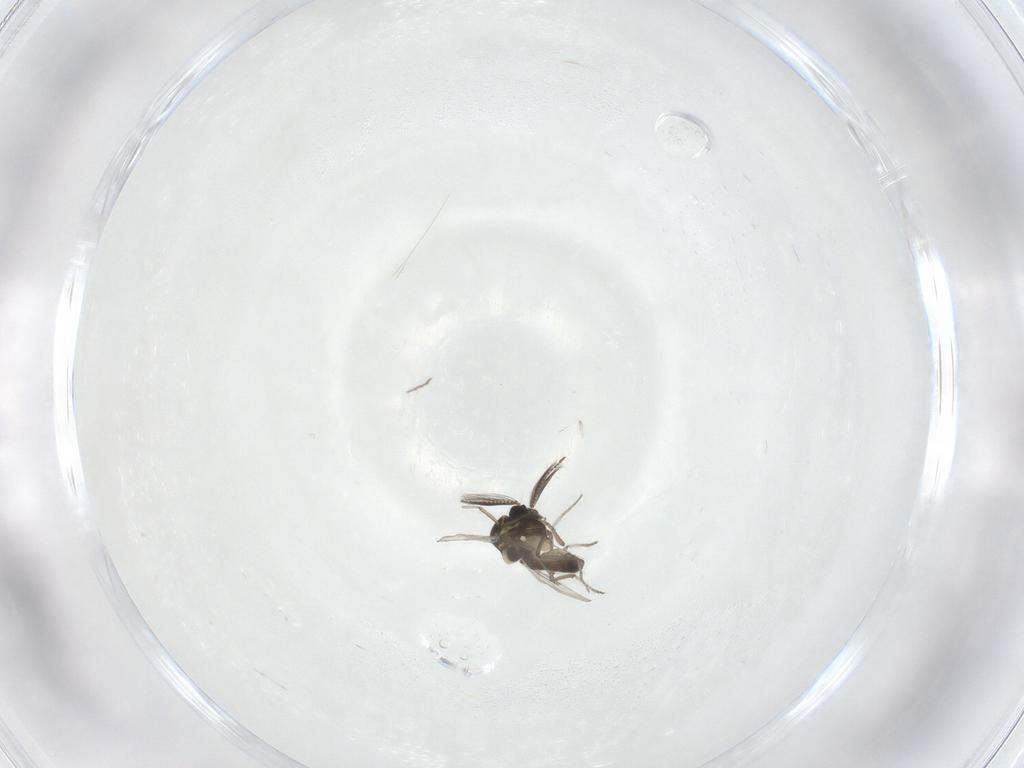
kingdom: Animalia
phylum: Arthropoda
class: Insecta
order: Diptera
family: Ceratopogonidae
